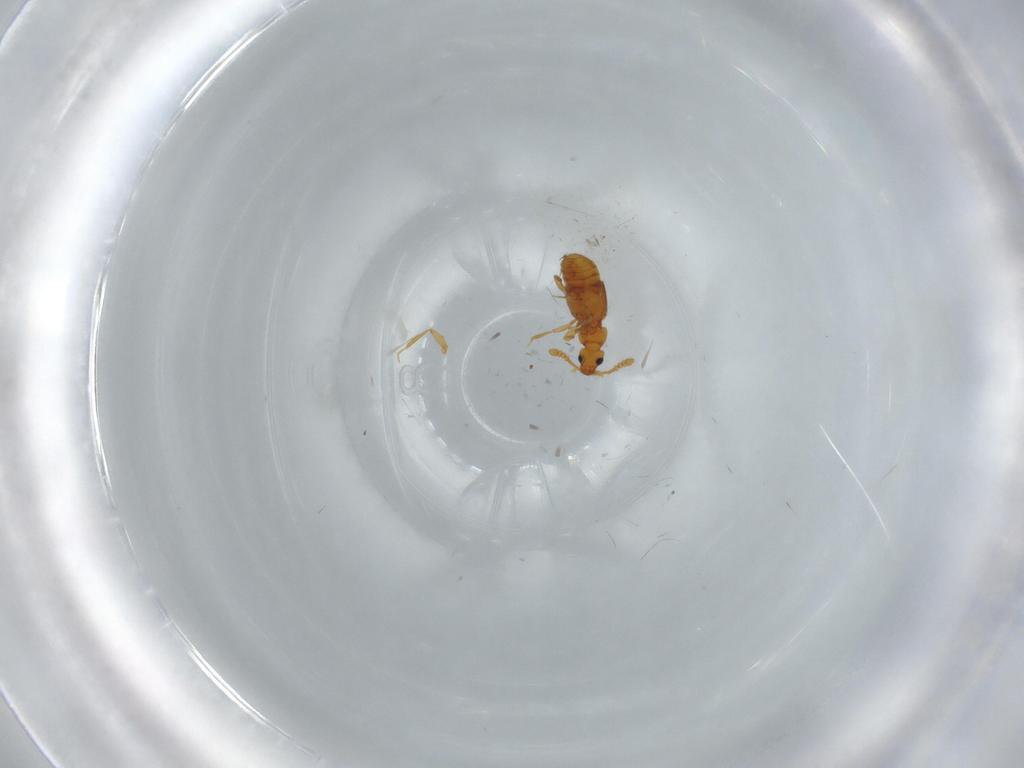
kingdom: Animalia
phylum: Arthropoda
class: Insecta
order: Coleoptera
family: Staphylinidae
